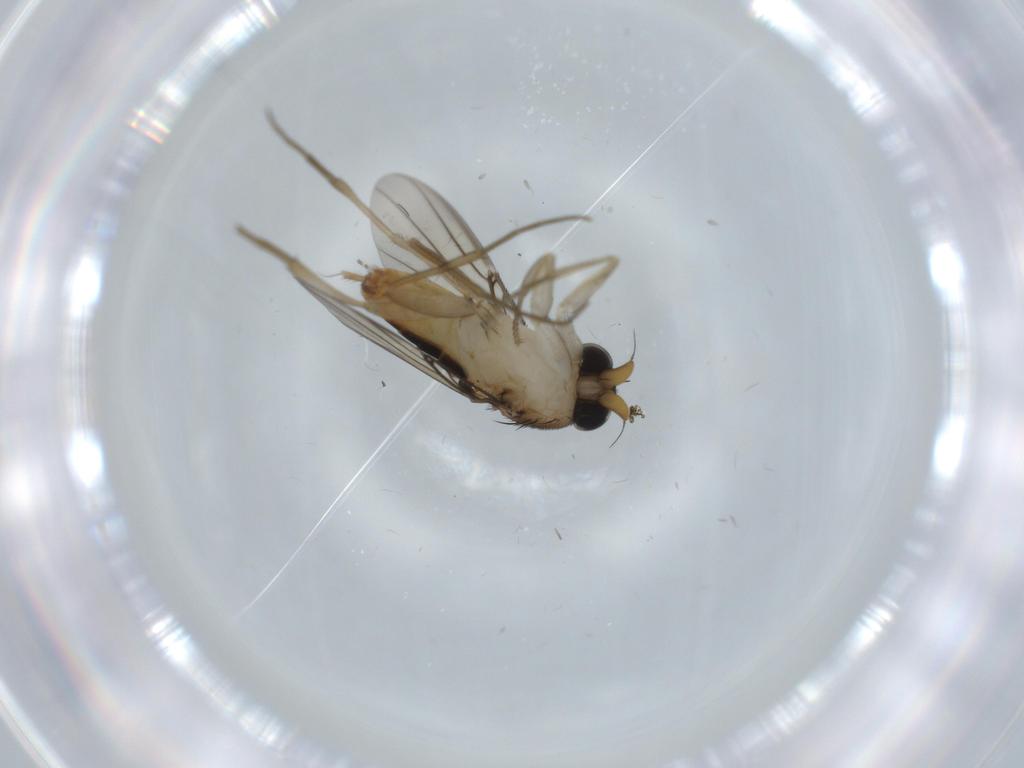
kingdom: Animalia
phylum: Arthropoda
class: Insecta
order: Diptera
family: Phoridae
